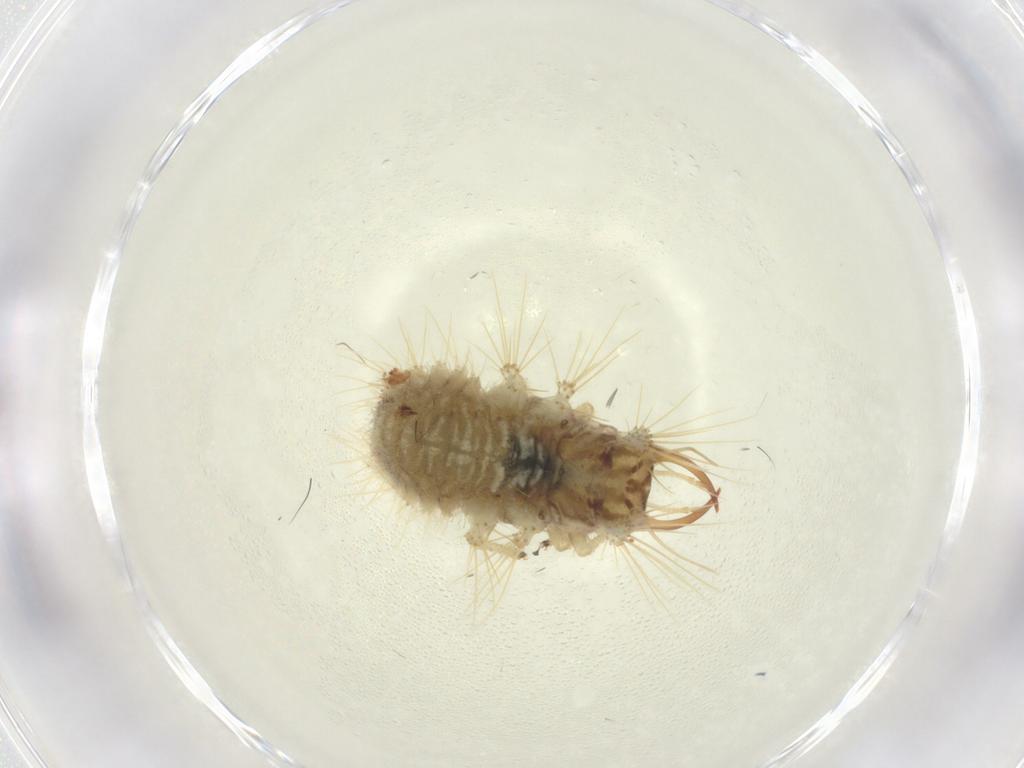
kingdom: Animalia
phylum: Arthropoda
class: Insecta
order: Neuroptera
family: Chrysopidae
